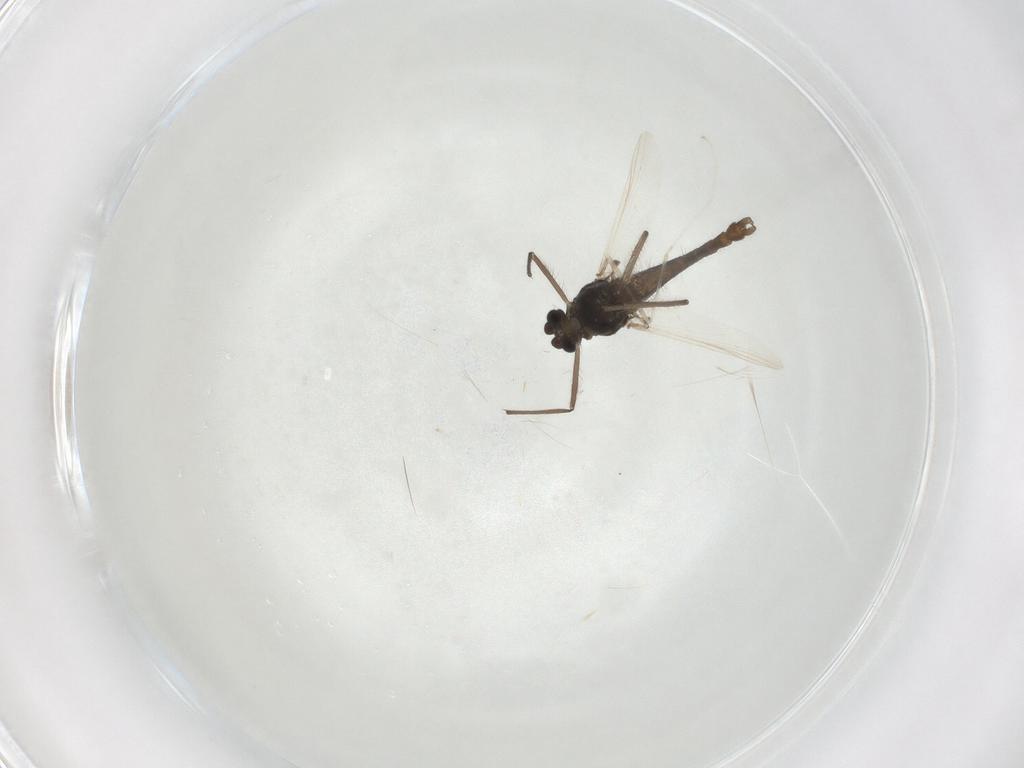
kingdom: Animalia
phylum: Arthropoda
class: Insecta
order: Diptera
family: Chironomidae
